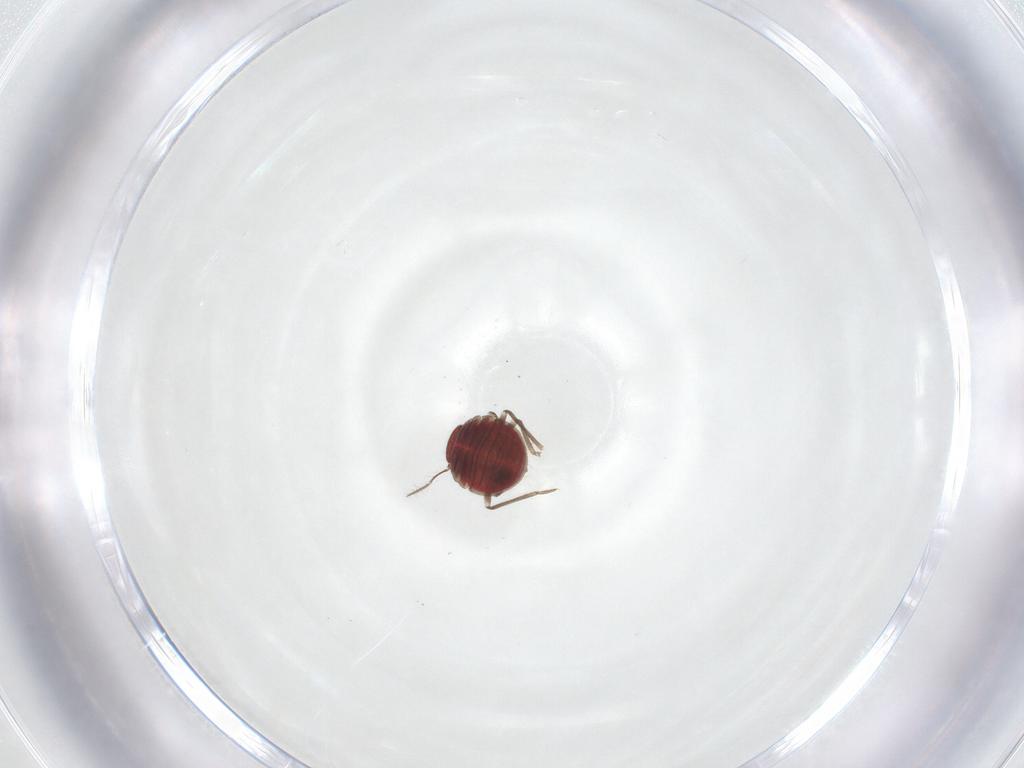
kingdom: Animalia
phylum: Arthropoda
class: Insecta
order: Hemiptera
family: Schizopteridae
